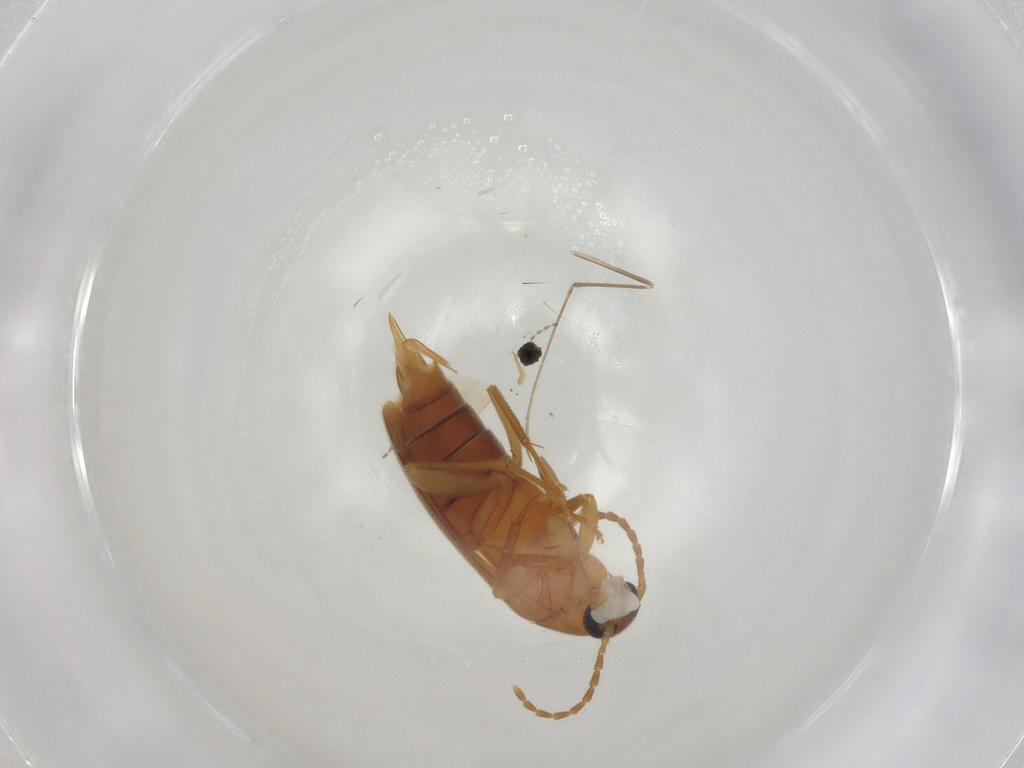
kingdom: Animalia
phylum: Arthropoda
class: Insecta
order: Coleoptera
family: Scraptiidae
